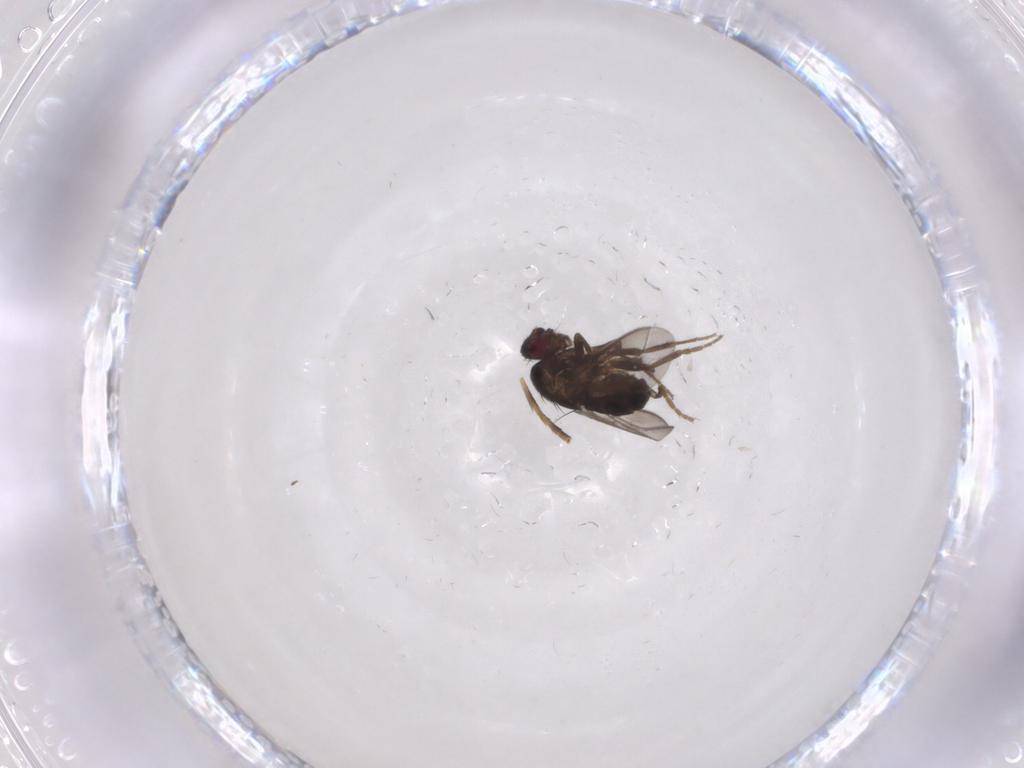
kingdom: Animalia
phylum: Arthropoda
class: Insecta
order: Diptera
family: Sphaeroceridae
